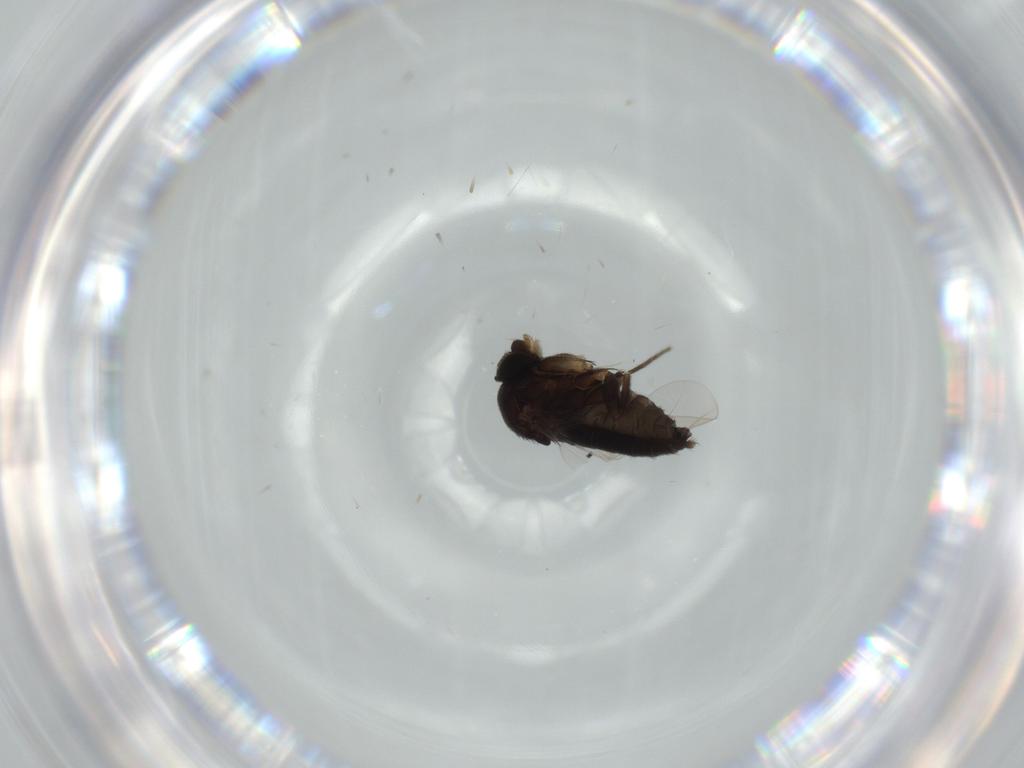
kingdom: Animalia
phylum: Arthropoda
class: Insecta
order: Diptera
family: Phoridae
